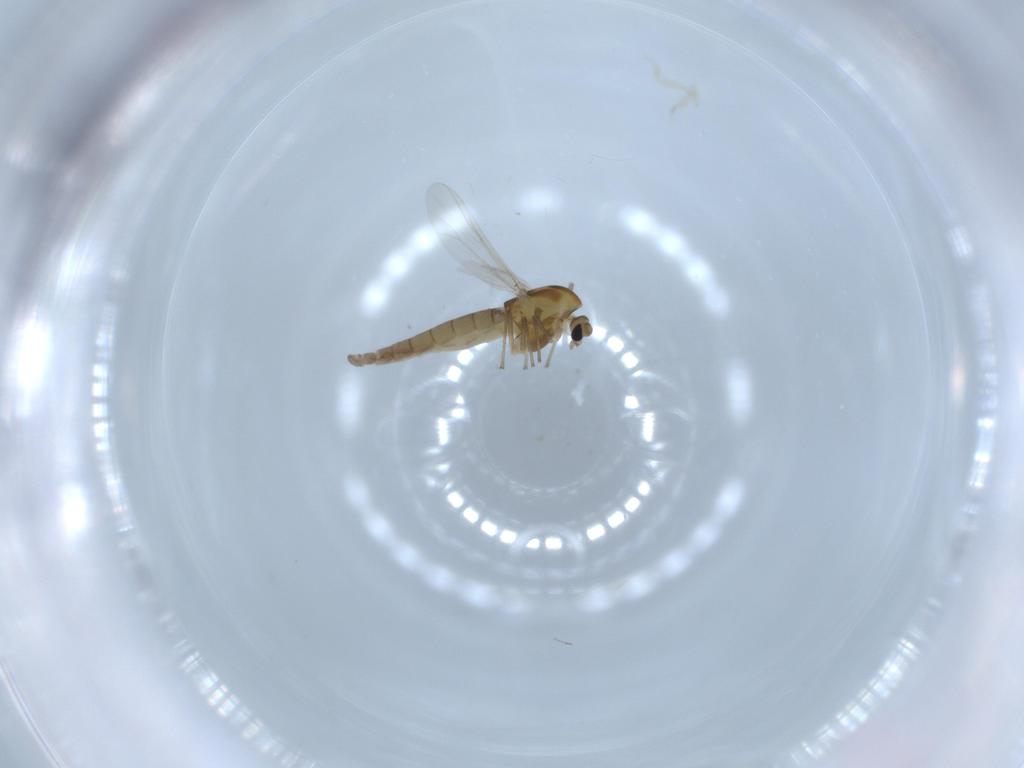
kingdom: Animalia
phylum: Arthropoda
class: Insecta
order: Diptera
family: Chironomidae
